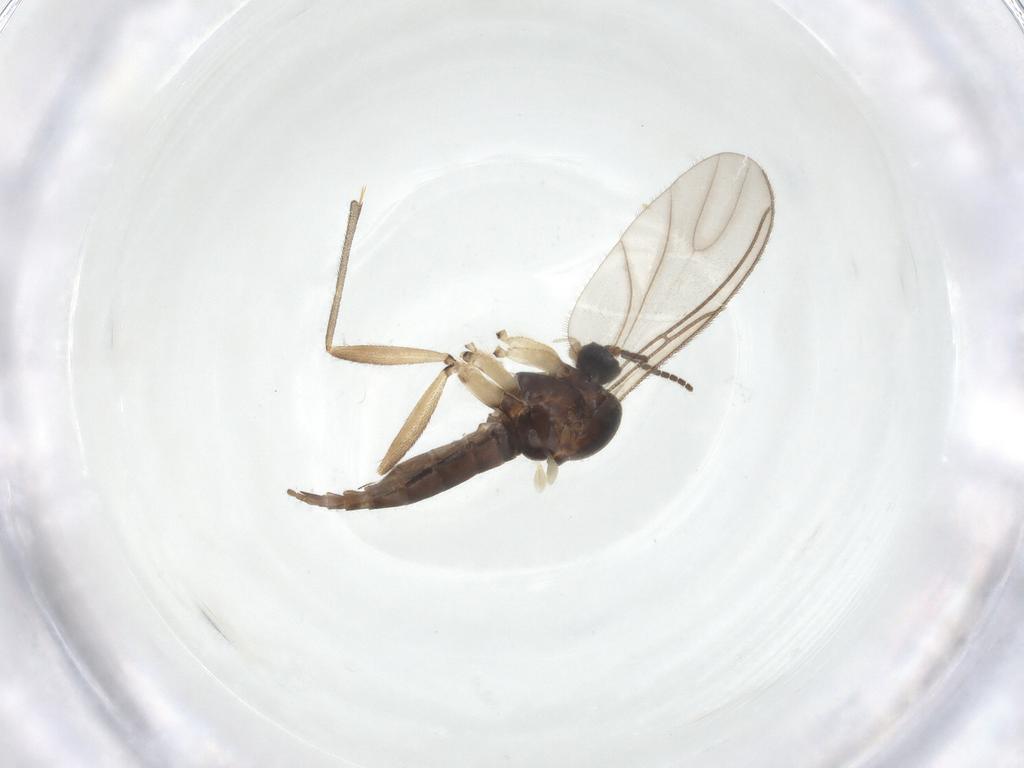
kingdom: Animalia
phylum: Arthropoda
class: Insecta
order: Diptera
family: Sciaridae
